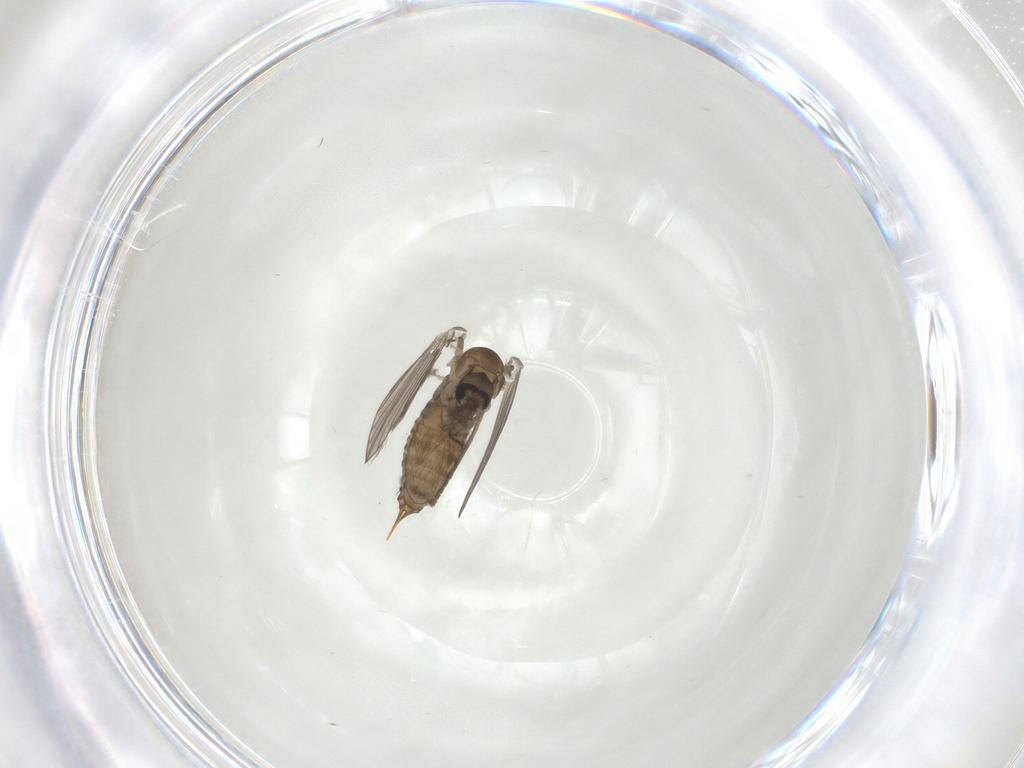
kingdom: Animalia
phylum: Arthropoda
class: Insecta
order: Diptera
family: Psychodidae
